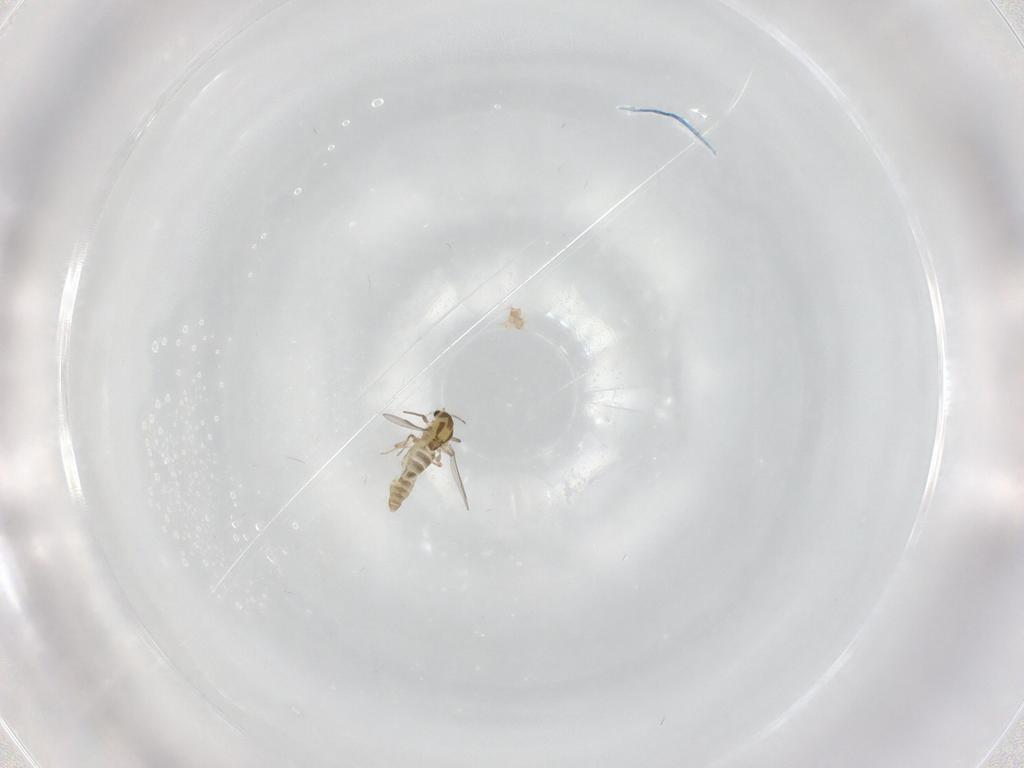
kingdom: Animalia
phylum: Arthropoda
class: Insecta
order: Diptera
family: Chironomidae
